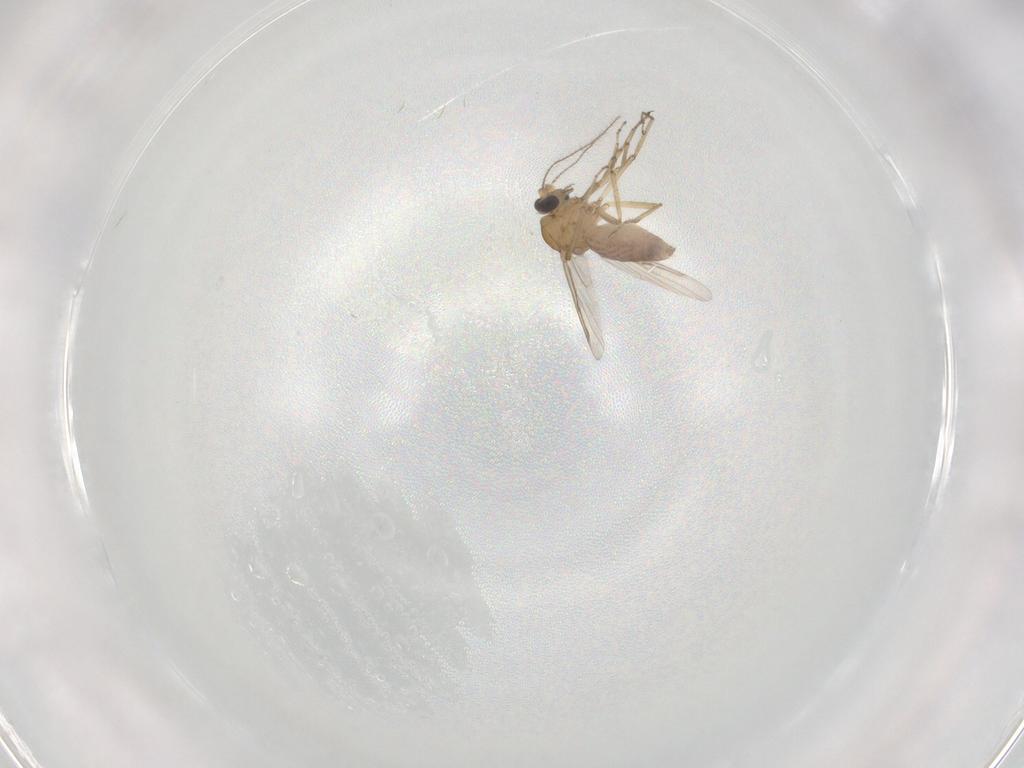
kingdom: Animalia
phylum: Arthropoda
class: Insecta
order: Diptera
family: Ceratopogonidae
